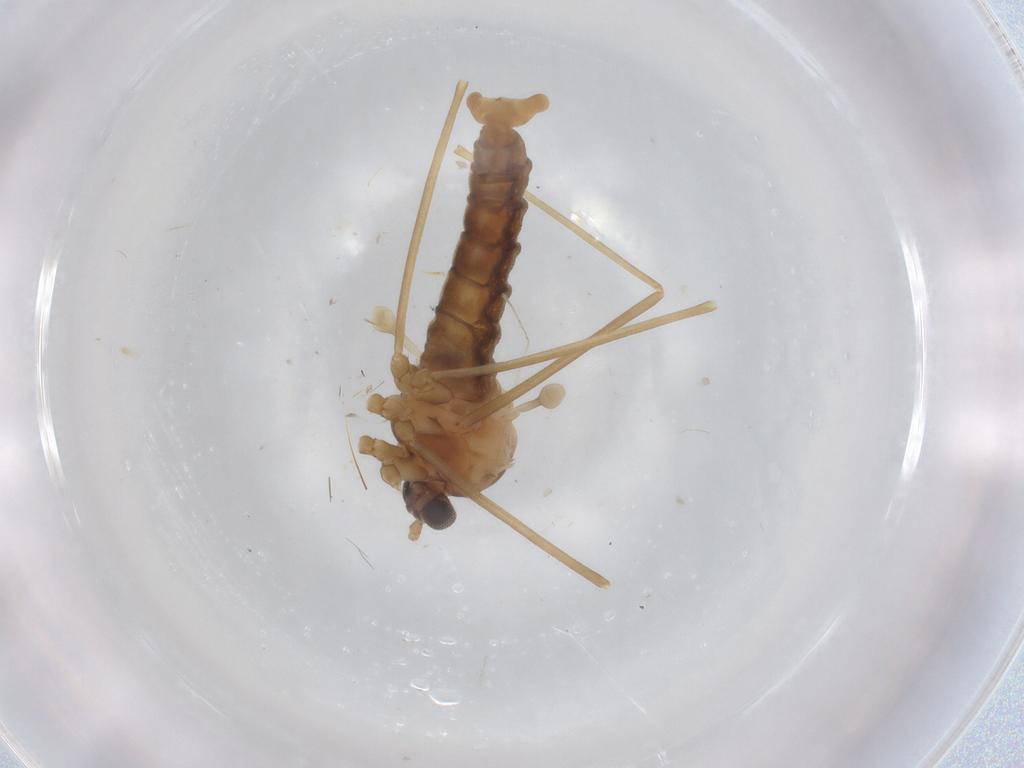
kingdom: Animalia
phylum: Arthropoda
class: Insecta
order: Diptera
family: Cecidomyiidae
